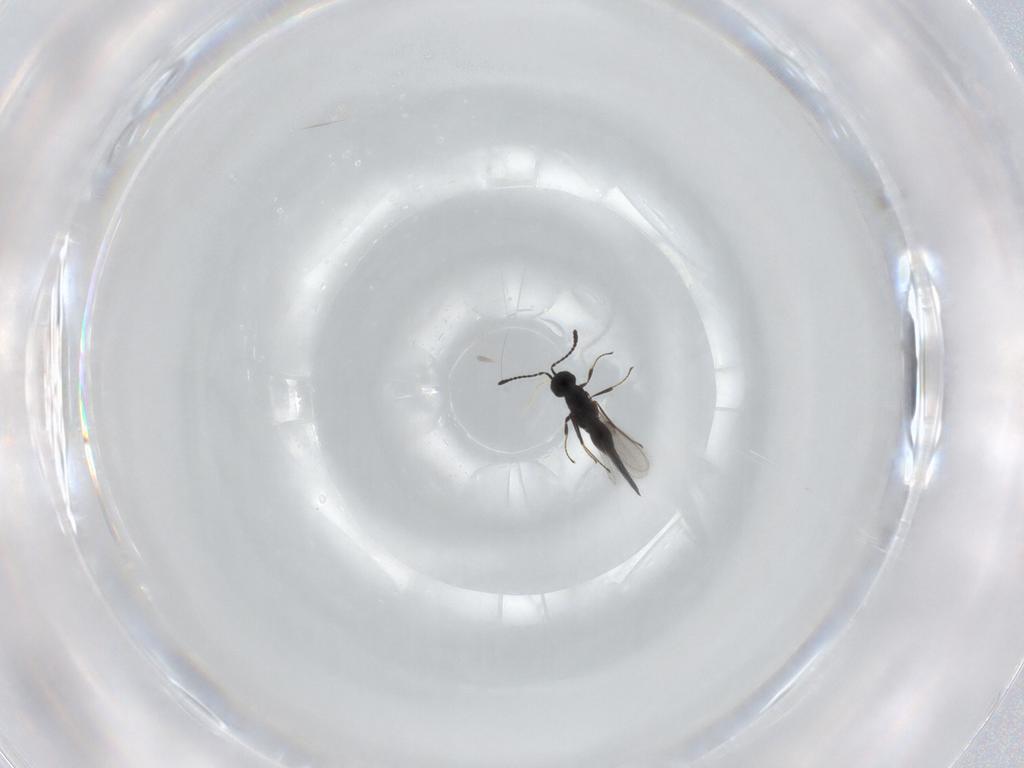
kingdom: Animalia
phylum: Arthropoda
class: Insecta
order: Hymenoptera
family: Scelionidae
